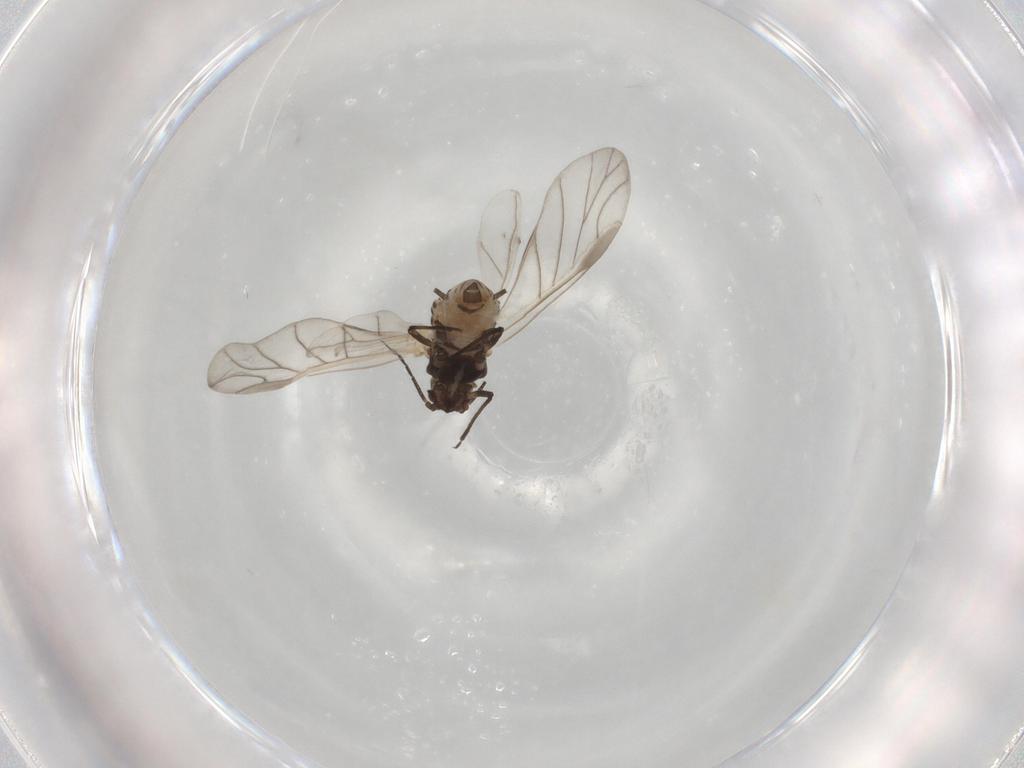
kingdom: Animalia
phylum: Arthropoda
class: Insecta
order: Hemiptera
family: Aphididae
